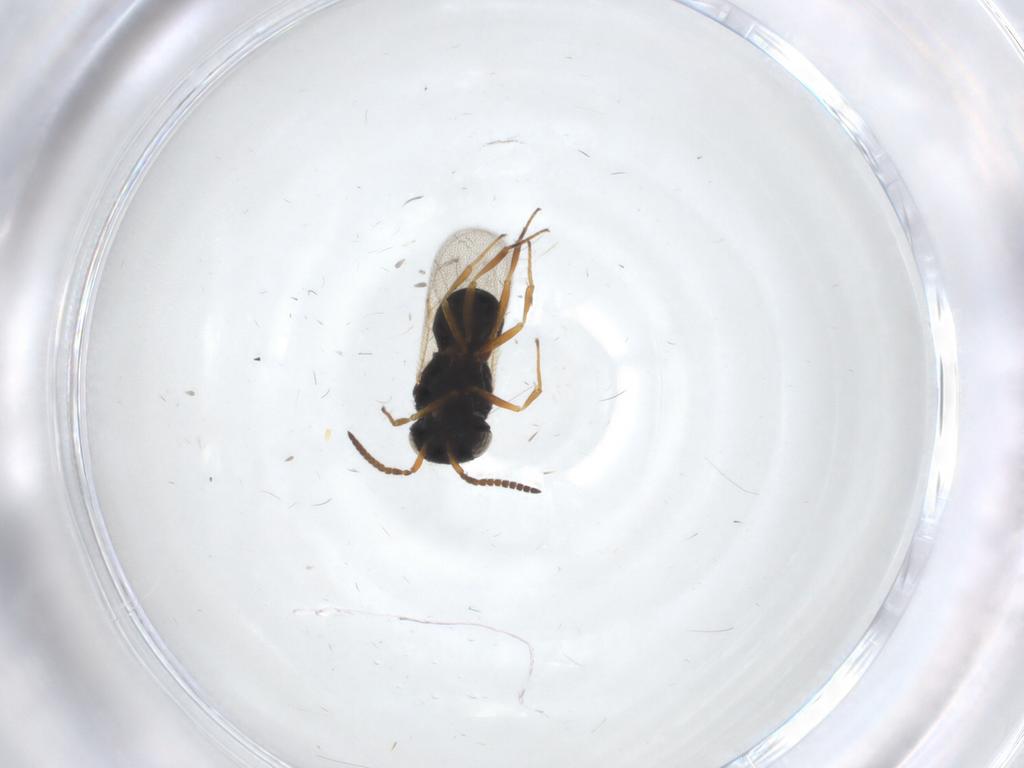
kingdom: Animalia
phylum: Arthropoda
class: Insecta
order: Hymenoptera
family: Scelionidae
